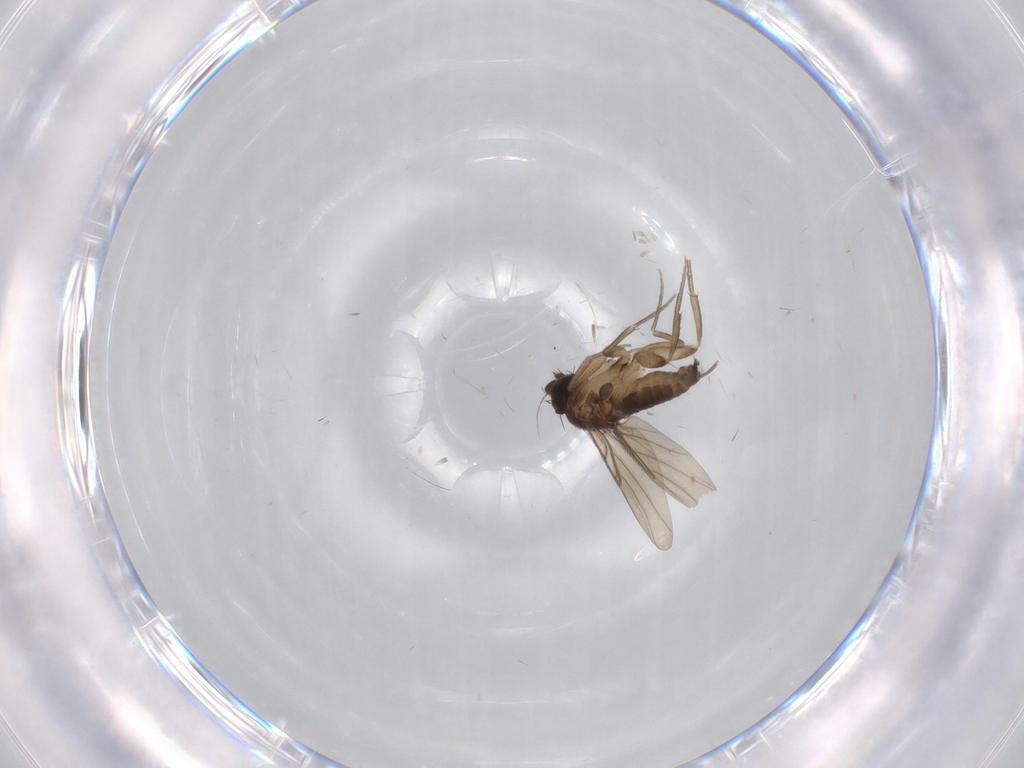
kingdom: Animalia
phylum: Arthropoda
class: Insecta
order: Diptera
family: Phoridae
